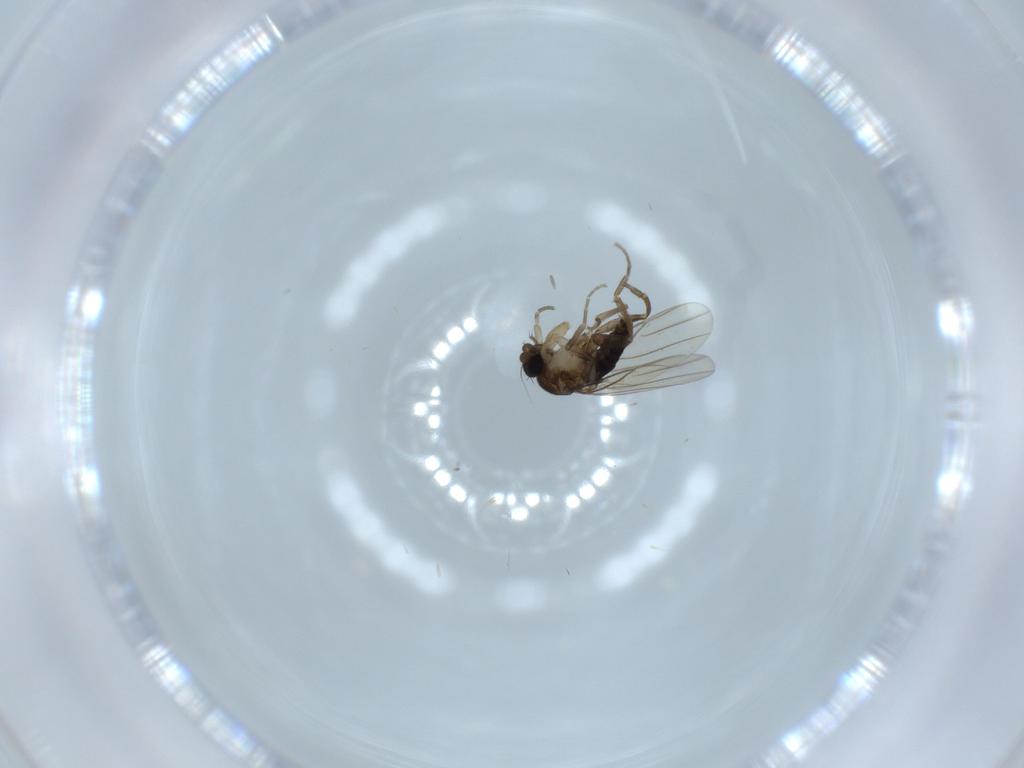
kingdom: Animalia
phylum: Arthropoda
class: Insecta
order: Diptera
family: Phoridae
